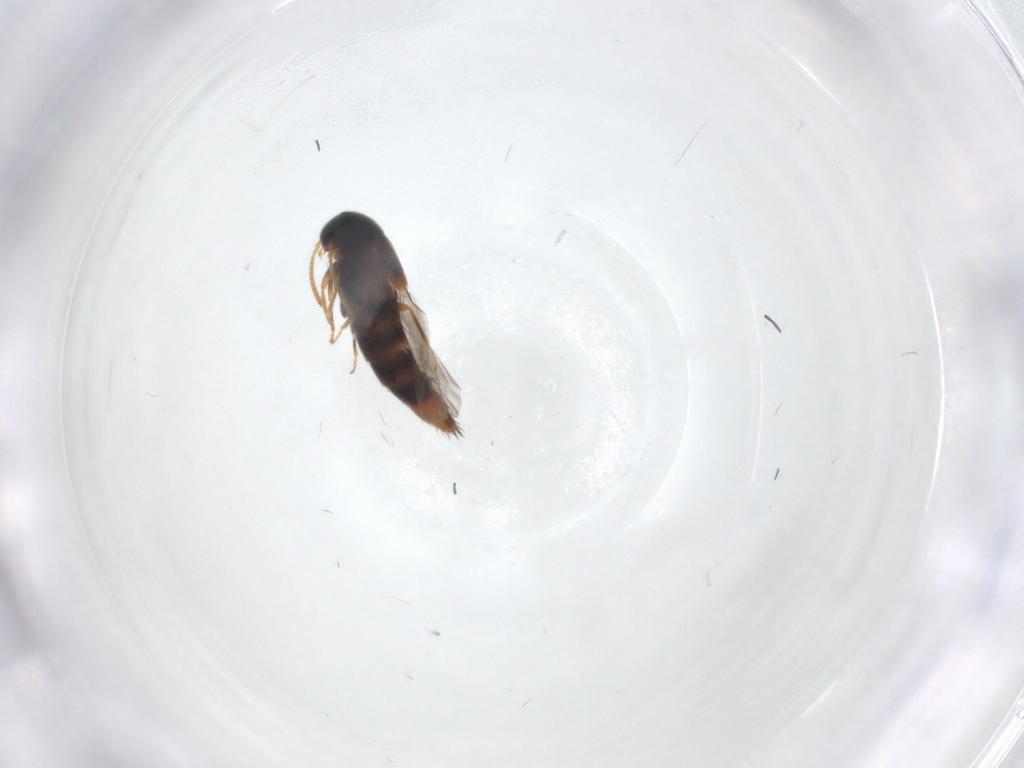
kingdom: Animalia
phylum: Arthropoda
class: Insecta
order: Coleoptera
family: Staphylinidae
